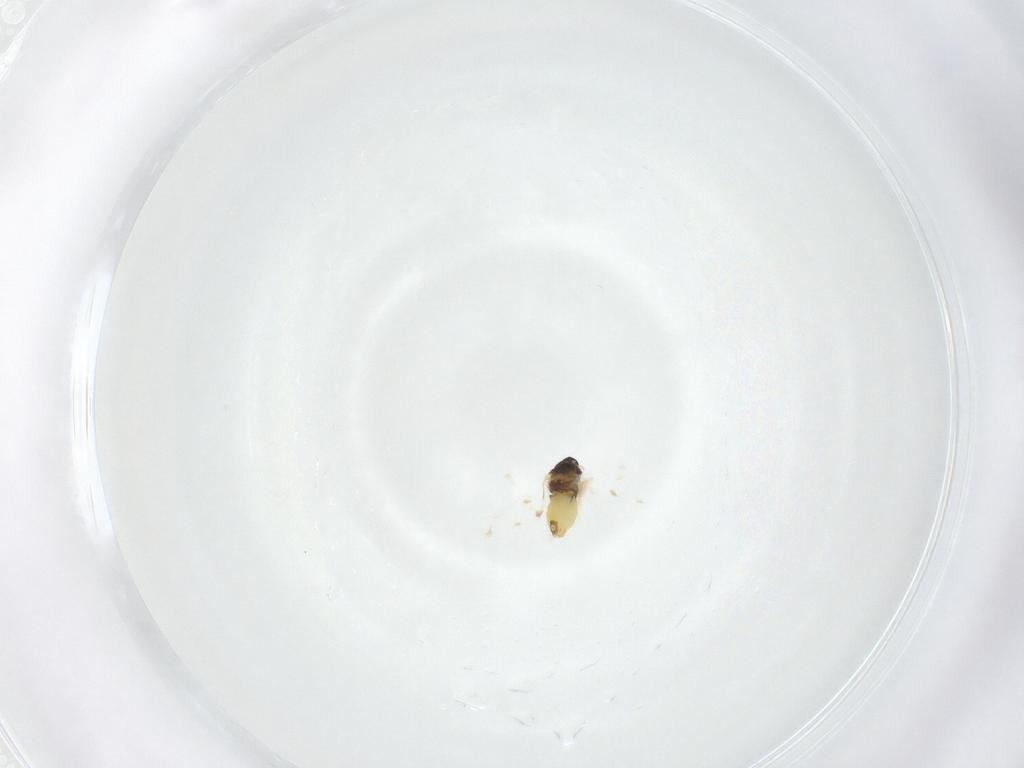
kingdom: Animalia
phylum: Arthropoda
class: Insecta
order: Hemiptera
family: Aleyrodidae
